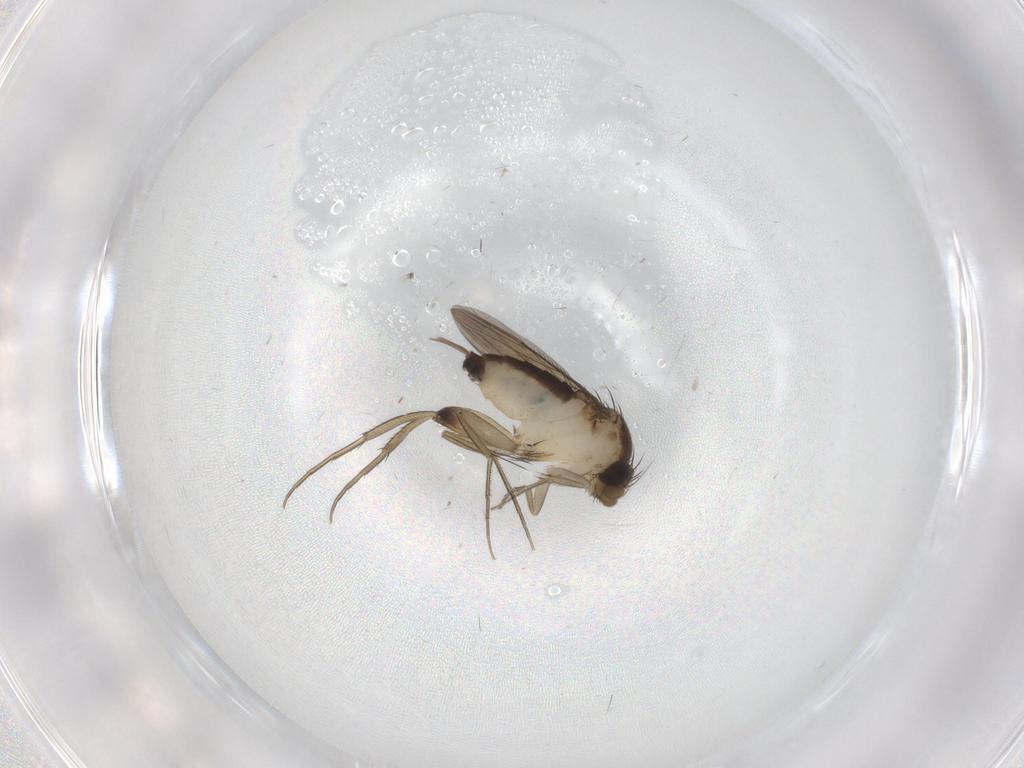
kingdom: Animalia
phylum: Arthropoda
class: Insecta
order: Diptera
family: Phoridae
